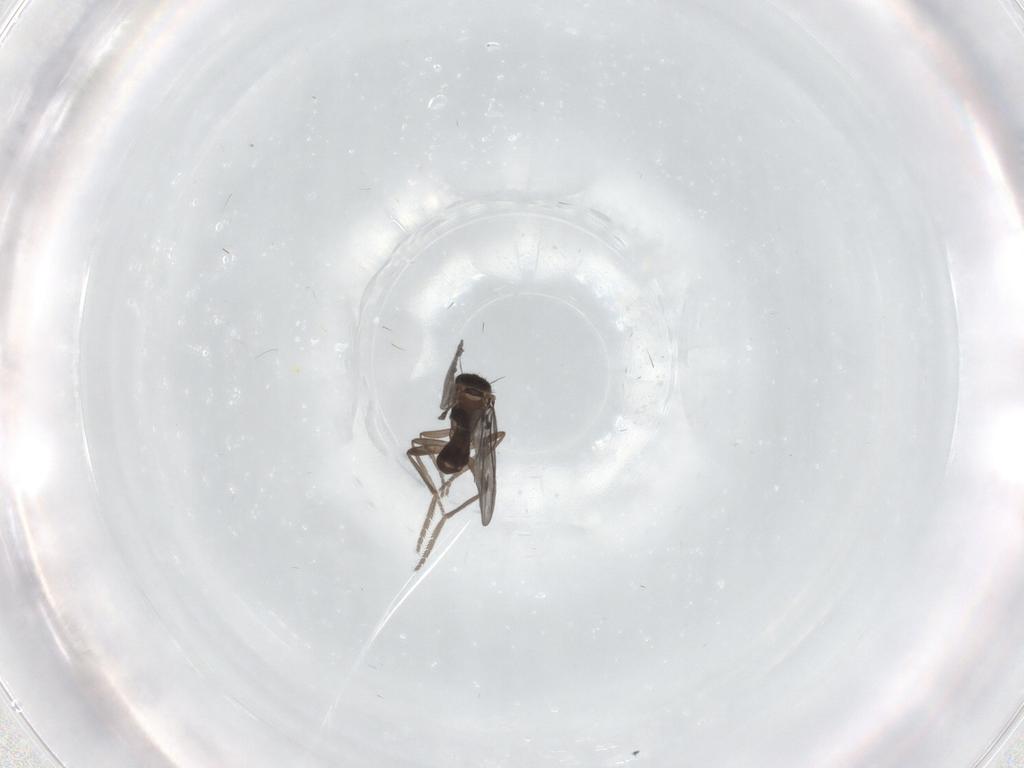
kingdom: Animalia
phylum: Arthropoda
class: Insecta
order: Diptera
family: Phoridae
